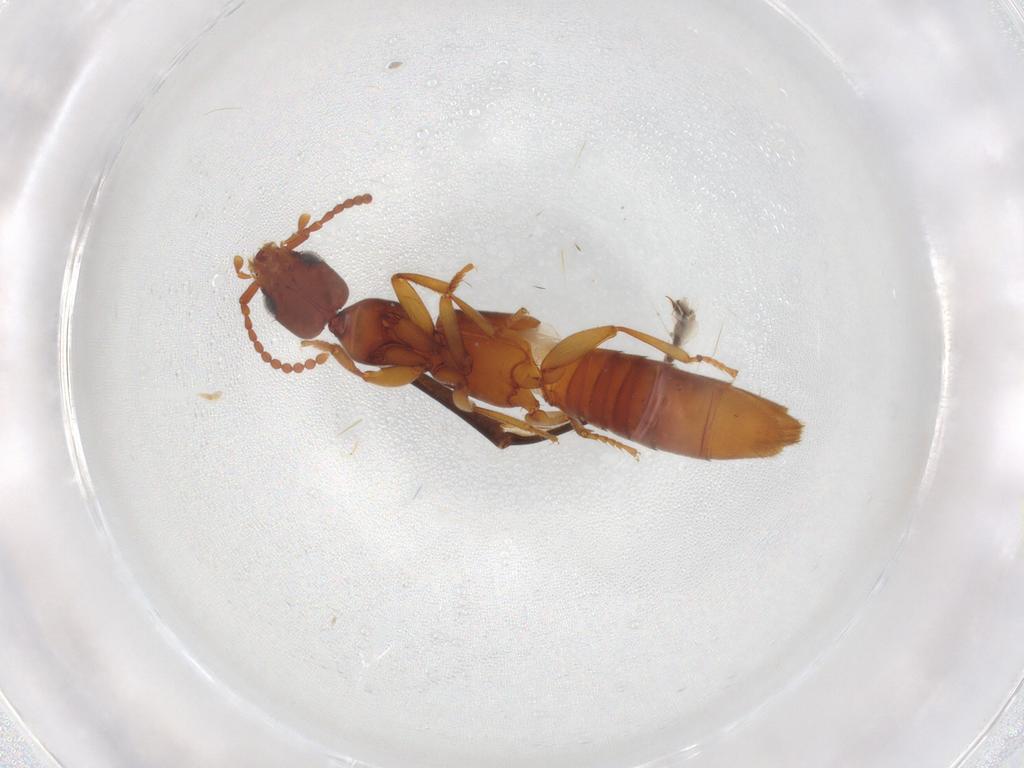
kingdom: Animalia
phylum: Arthropoda
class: Insecta
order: Coleoptera
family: Staphylinidae
